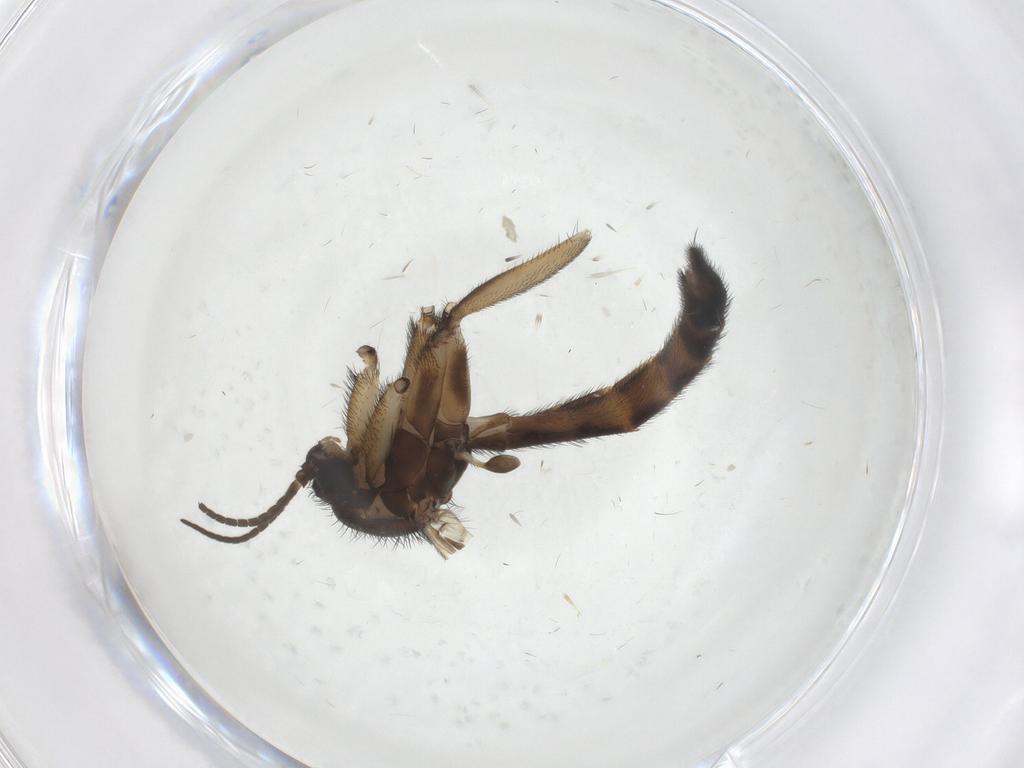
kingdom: Animalia
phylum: Arthropoda
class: Insecta
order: Diptera
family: Keroplatidae
